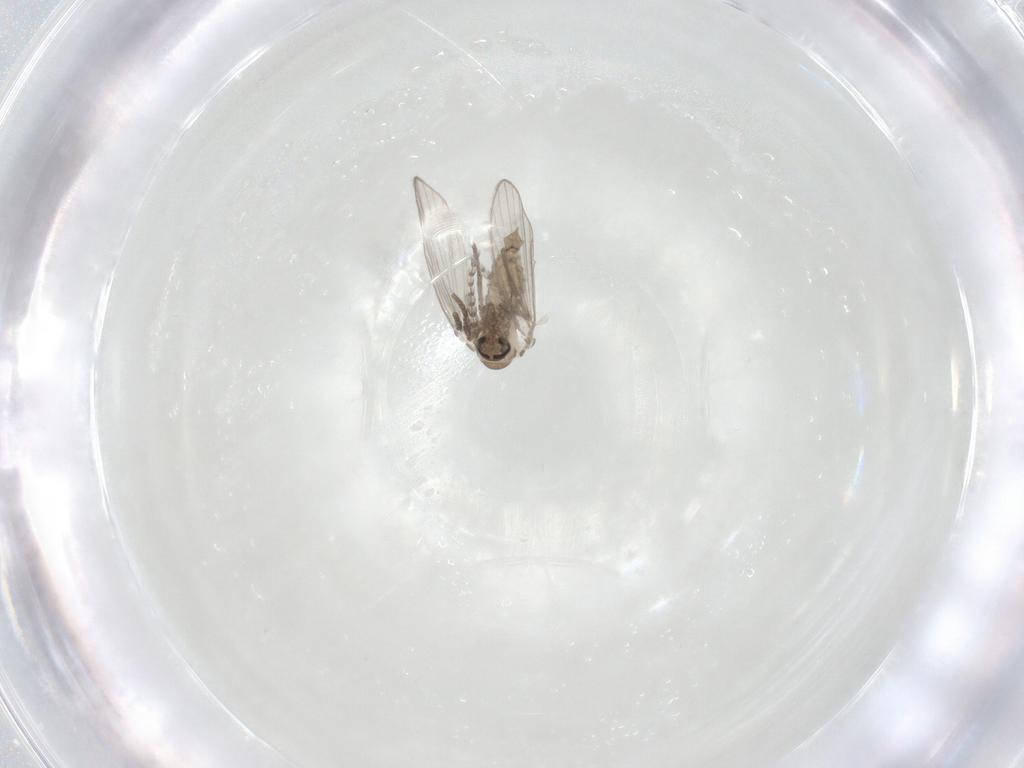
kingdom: Animalia
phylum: Arthropoda
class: Insecta
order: Diptera
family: Psychodidae
